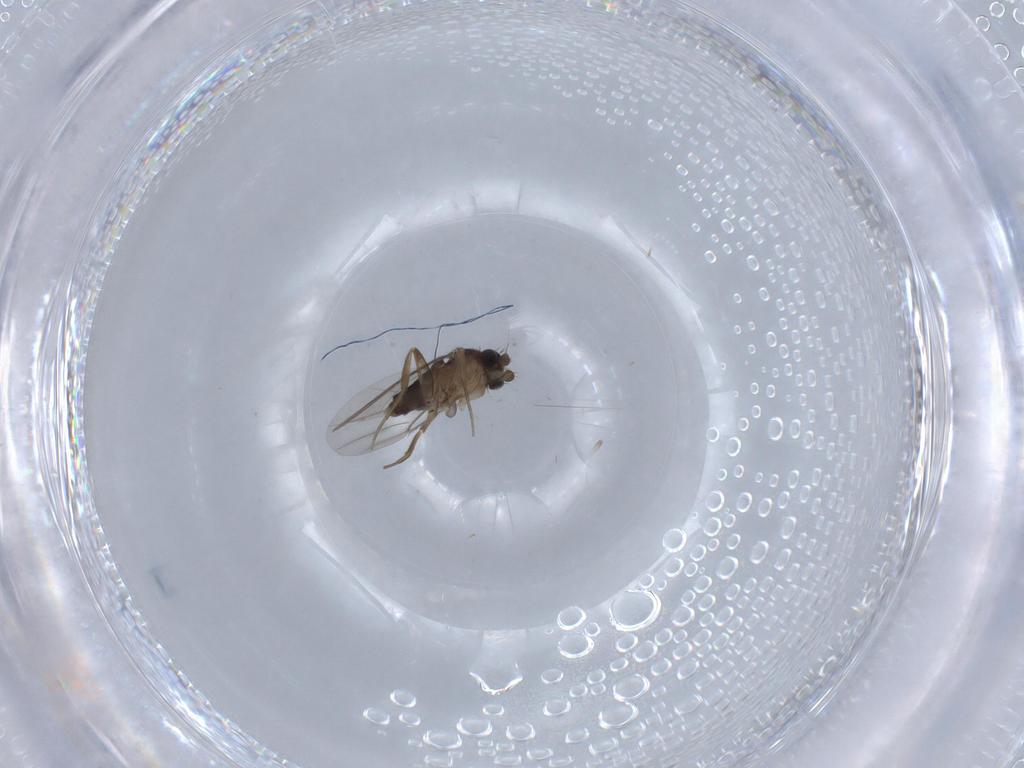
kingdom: Animalia
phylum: Arthropoda
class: Insecta
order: Diptera
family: Phoridae
